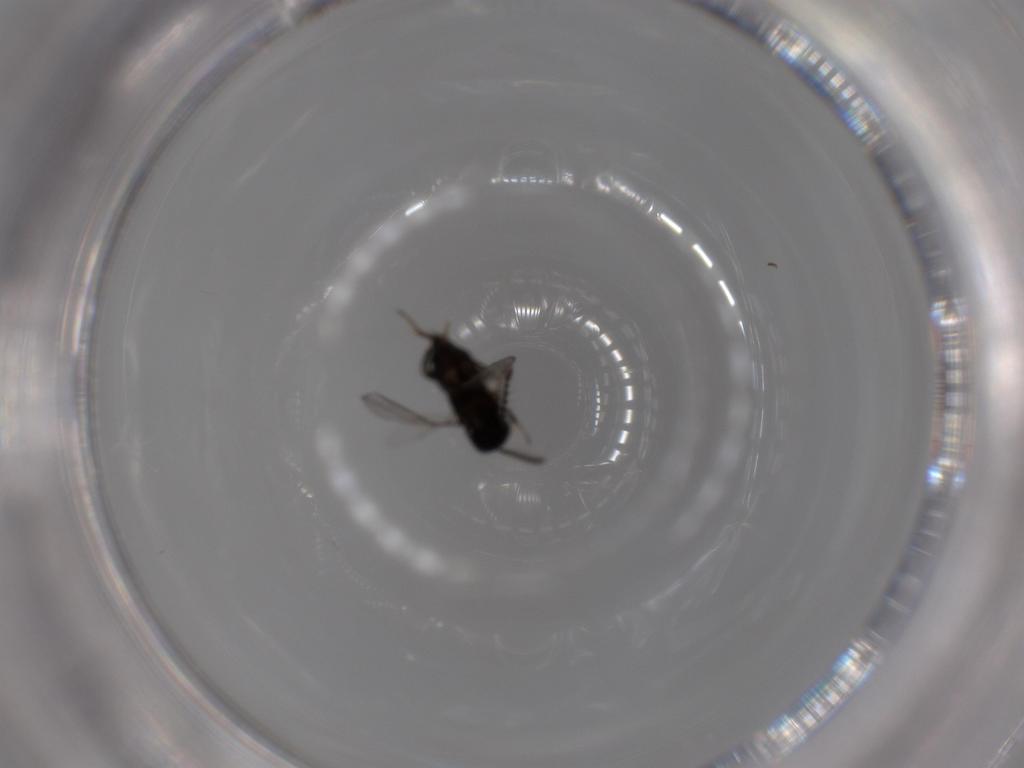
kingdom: Animalia
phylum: Arthropoda
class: Insecta
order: Hymenoptera
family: Encyrtidae
